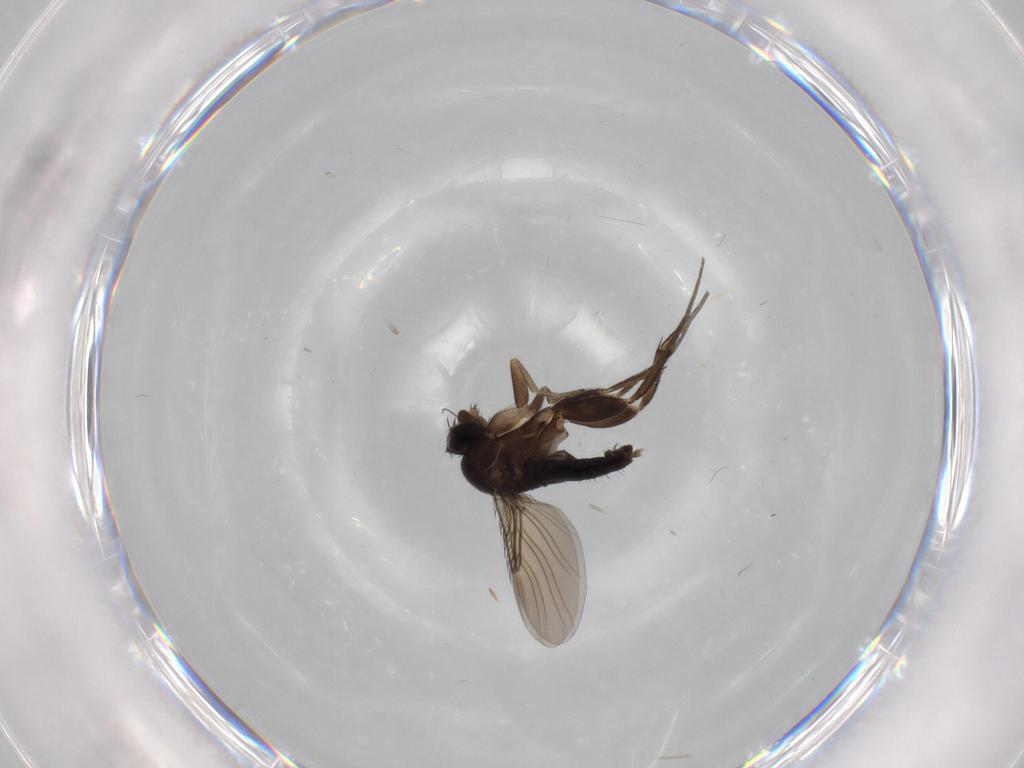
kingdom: Animalia
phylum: Arthropoda
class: Insecta
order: Diptera
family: Phoridae
